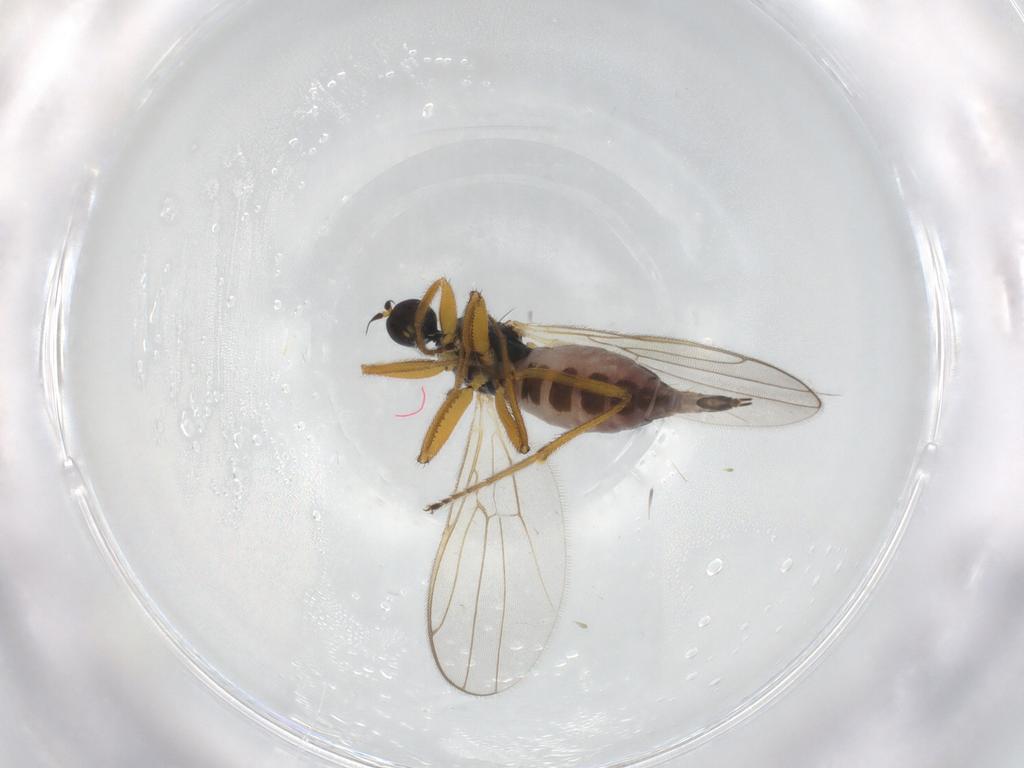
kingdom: Animalia
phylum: Arthropoda
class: Insecta
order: Diptera
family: Hybotidae
